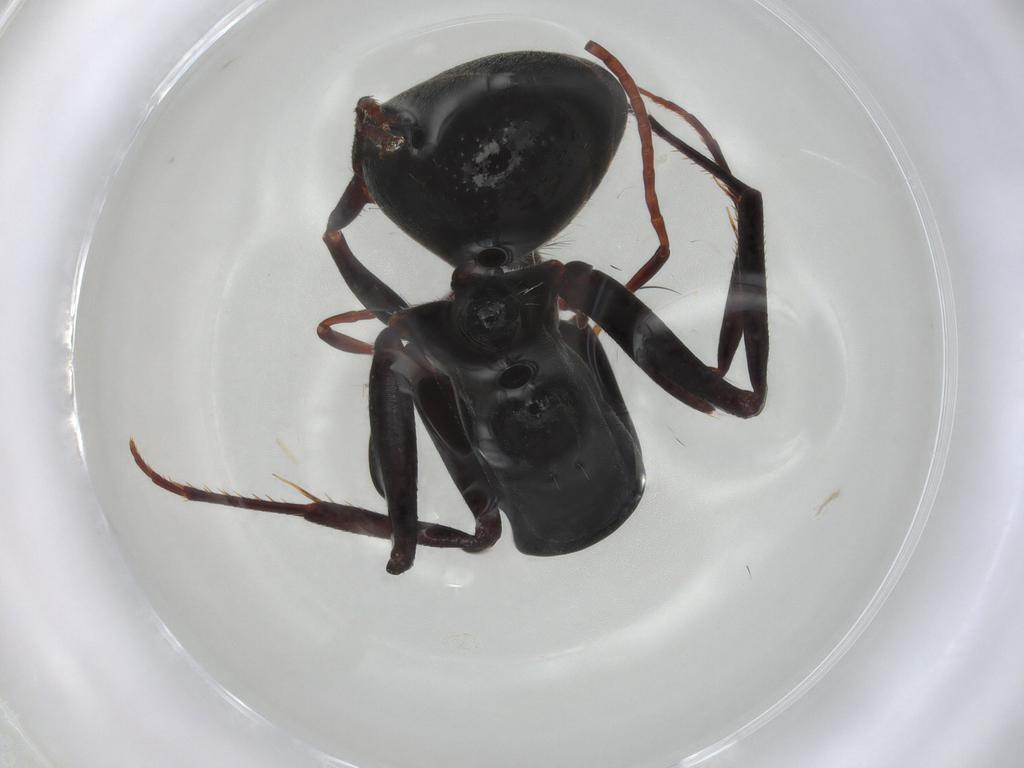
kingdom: Animalia
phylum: Arthropoda
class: Insecta
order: Hymenoptera
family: Formicidae
